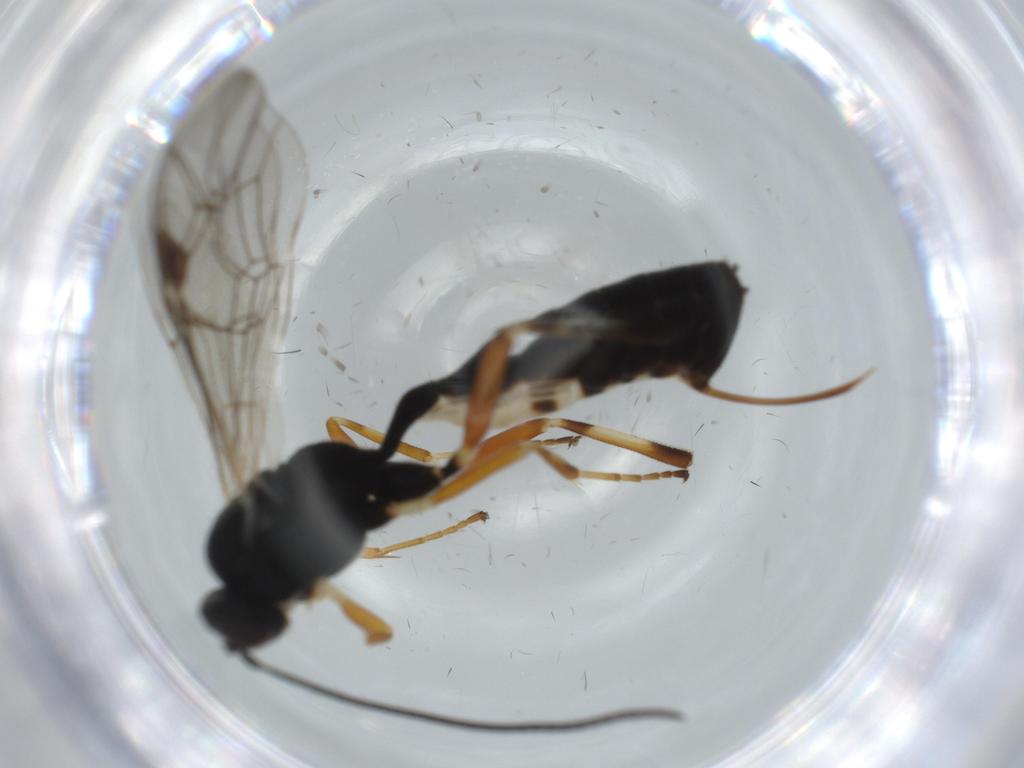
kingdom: Animalia
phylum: Arthropoda
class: Insecta
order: Hymenoptera
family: Ichneumonidae
